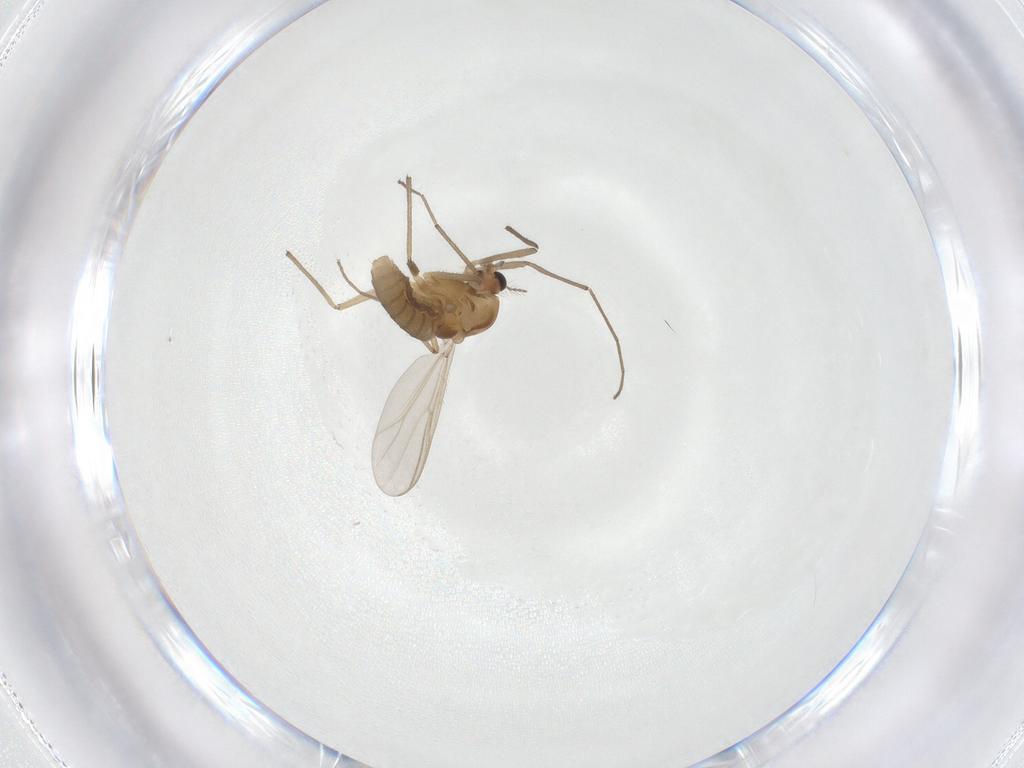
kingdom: Animalia
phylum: Arthropoda
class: Insecta
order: Diptera
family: Chironomidae
